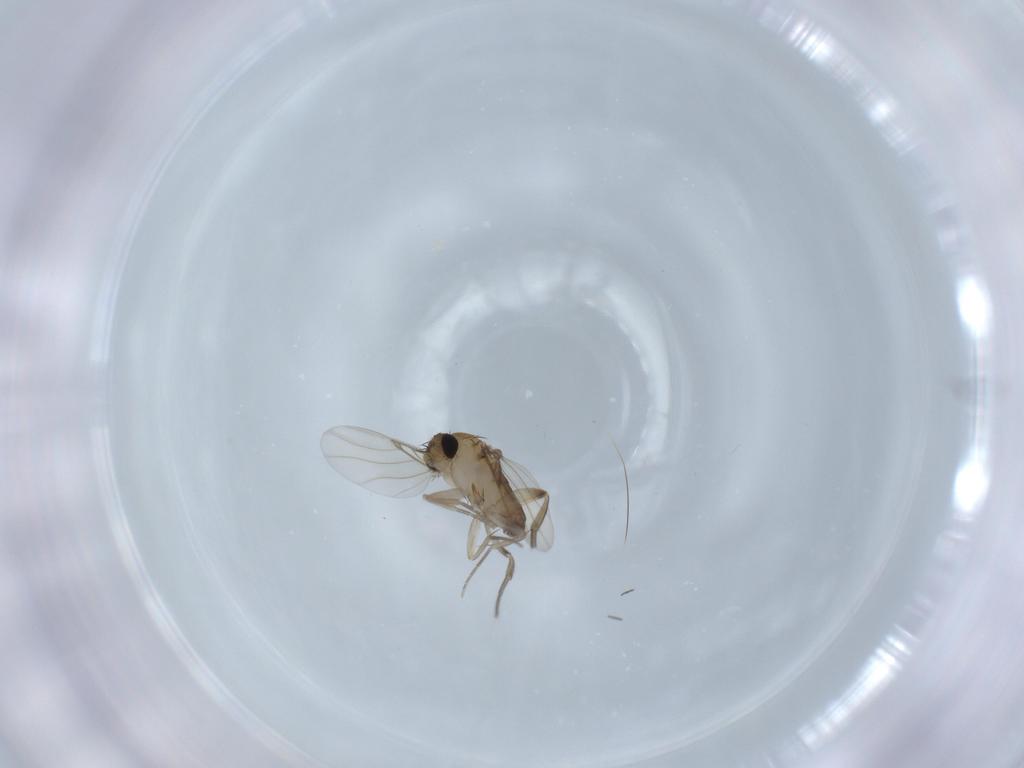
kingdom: Animalia
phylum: Arthropoda
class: Insecta
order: Diptera
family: Phoridae
